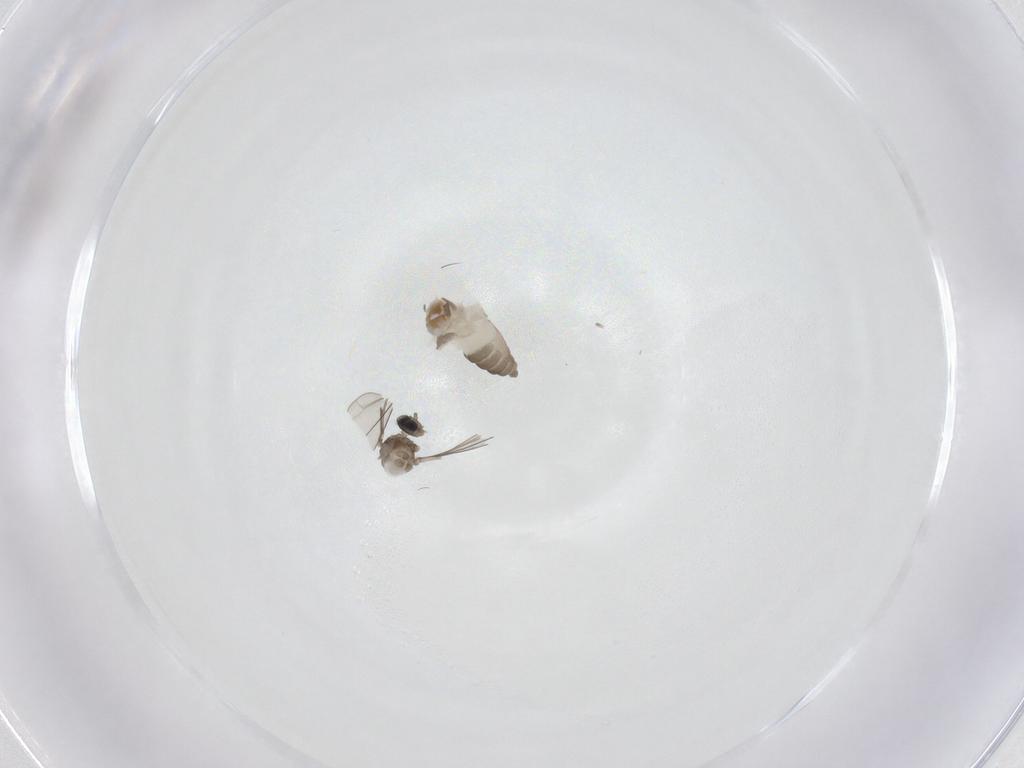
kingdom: Animalia
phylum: Arthropoda
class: Insecta
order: Diptera
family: Cecidomyiidae
